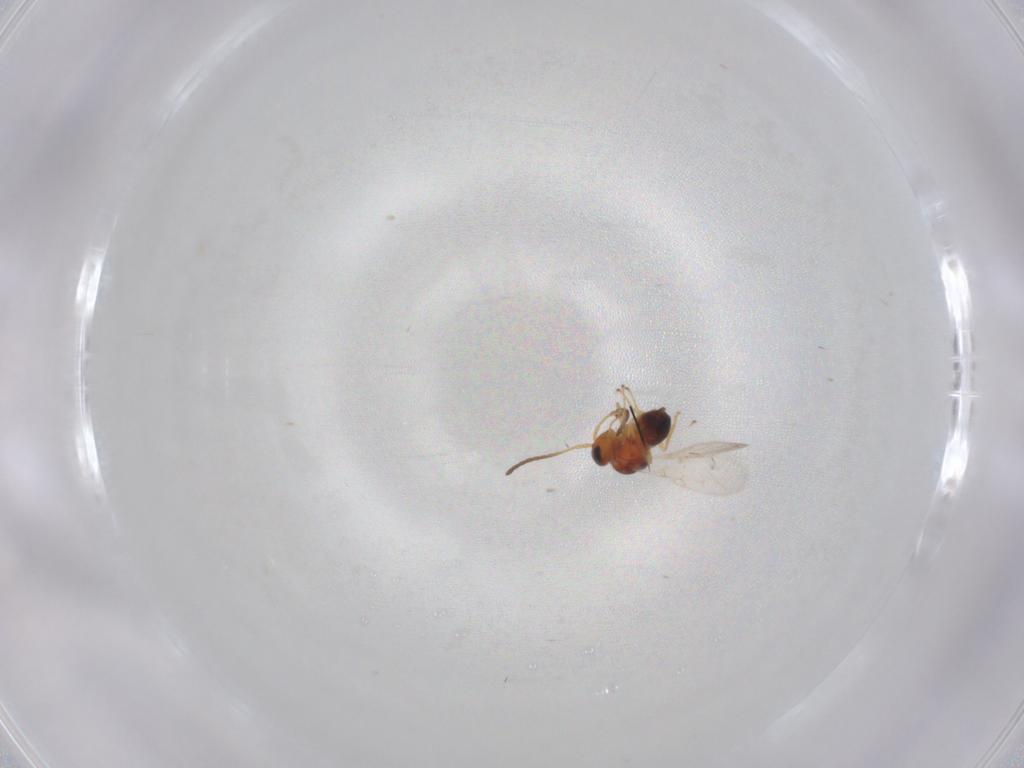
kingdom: Animalia
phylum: Arthropoda
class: Insecta
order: Hymenoptera
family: Figitidae
